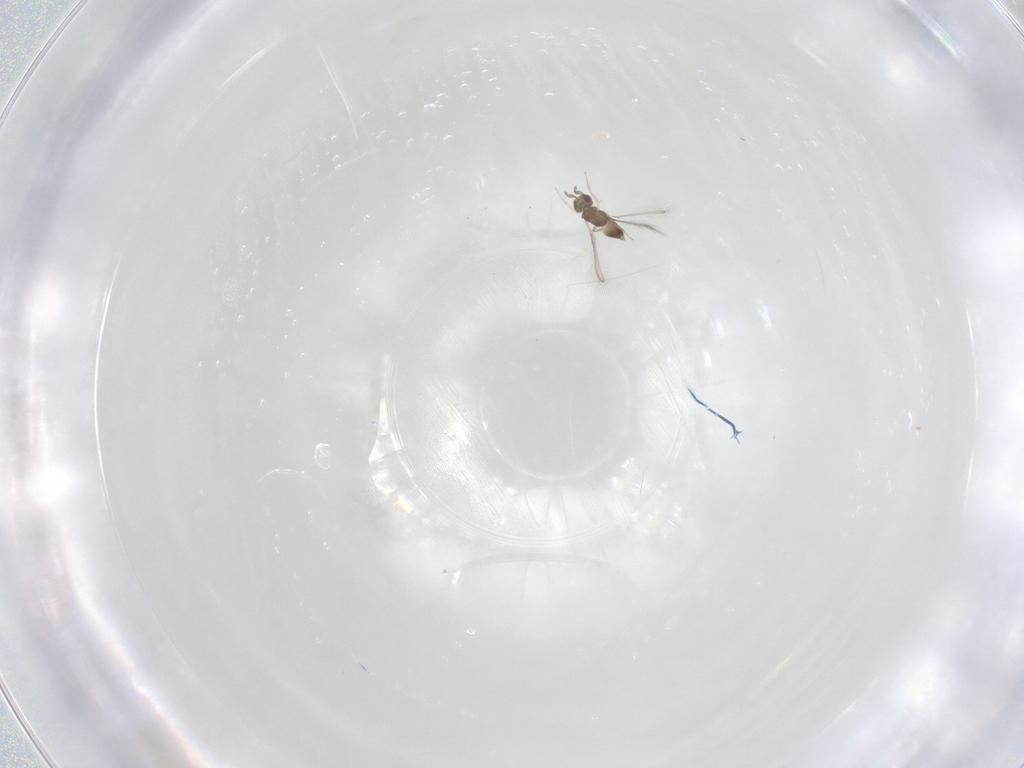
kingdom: Animalia
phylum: Arthropoda
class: Insecta
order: Hymenoptera
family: Mymaridae
